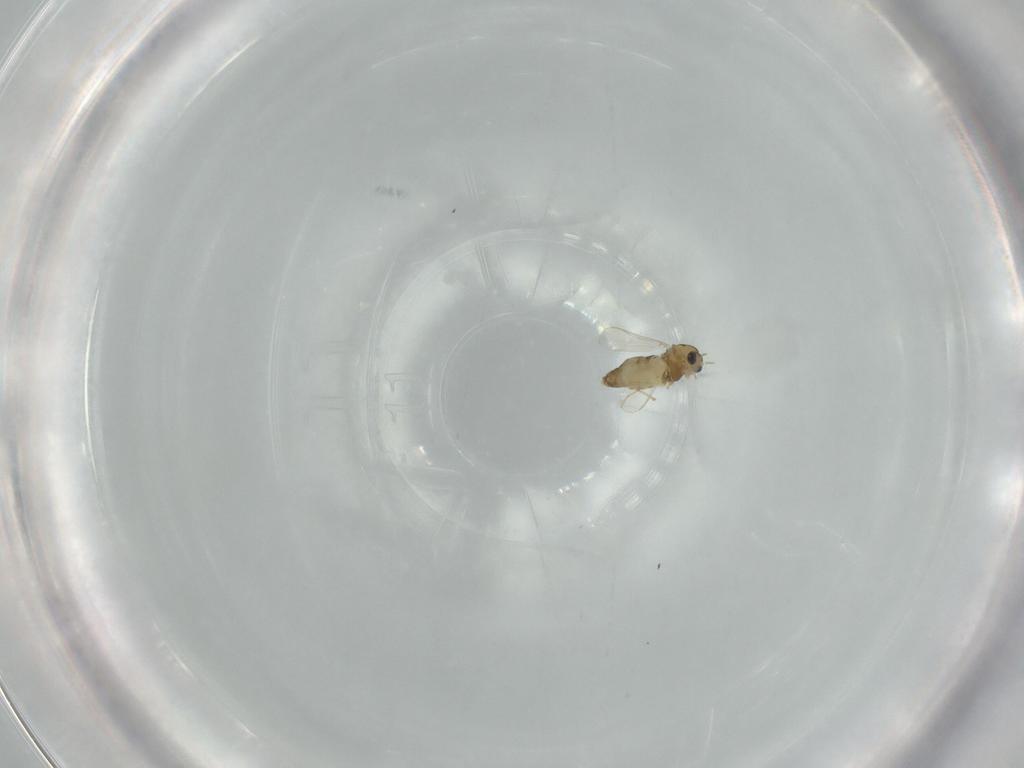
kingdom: Animalia
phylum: Arthropoda
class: Insecta
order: Diptera
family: Chironomidae
